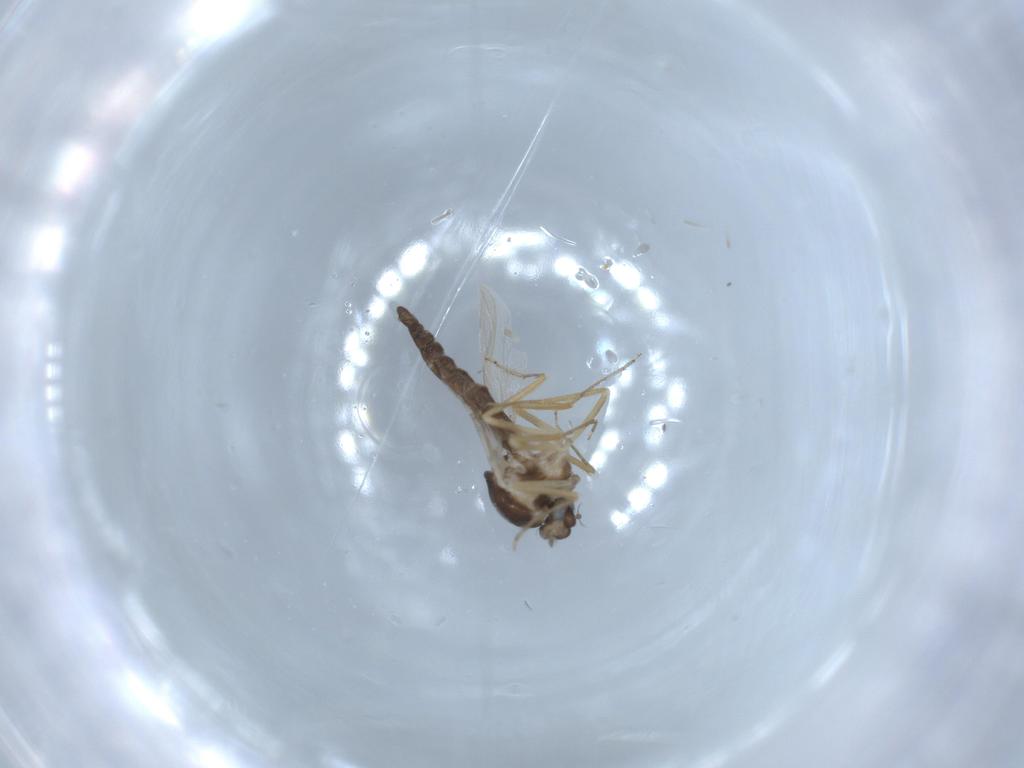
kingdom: Animalia
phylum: Arthropoda
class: Insecta
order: Diptera
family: Ceratopogonidae
